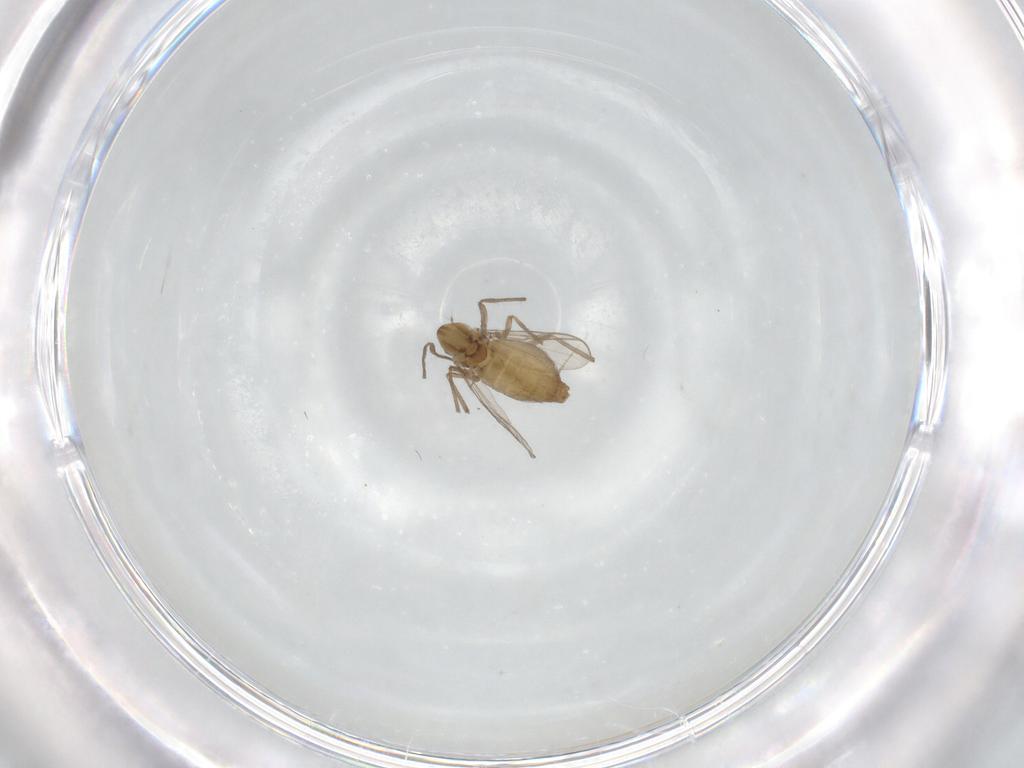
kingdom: Animalia
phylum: Arthropoda
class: Insecta
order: Diptera
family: Chironomidae
